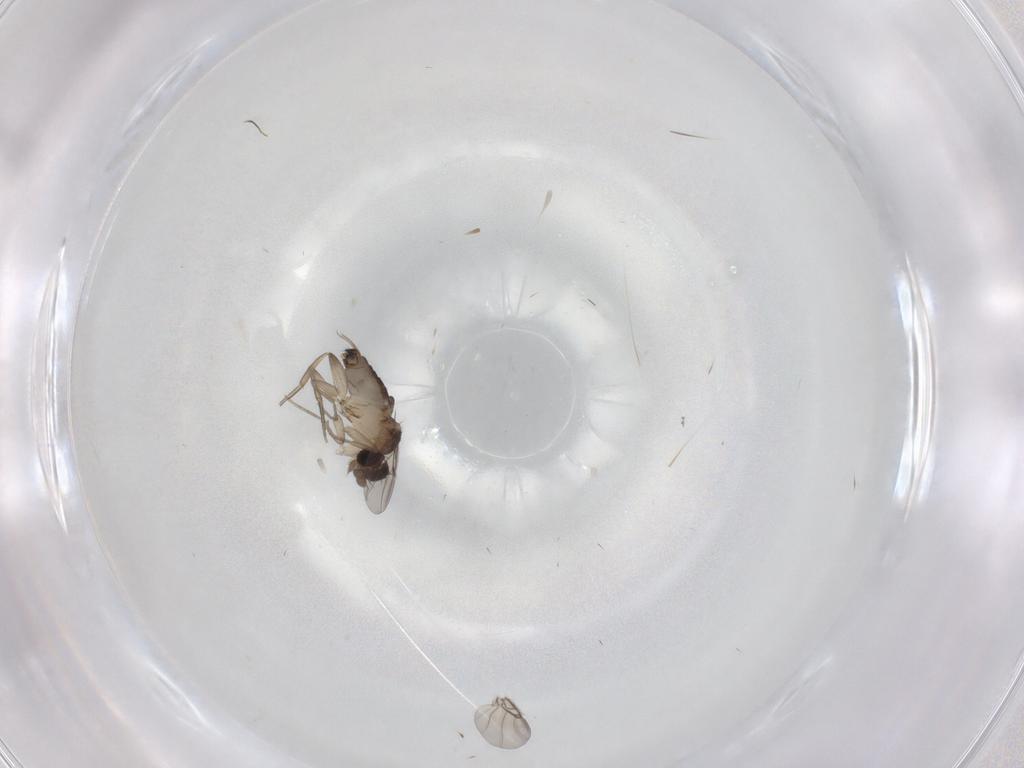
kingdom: Animalia
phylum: Arthropoda
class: Insecta
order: Diptera
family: Phoridae
